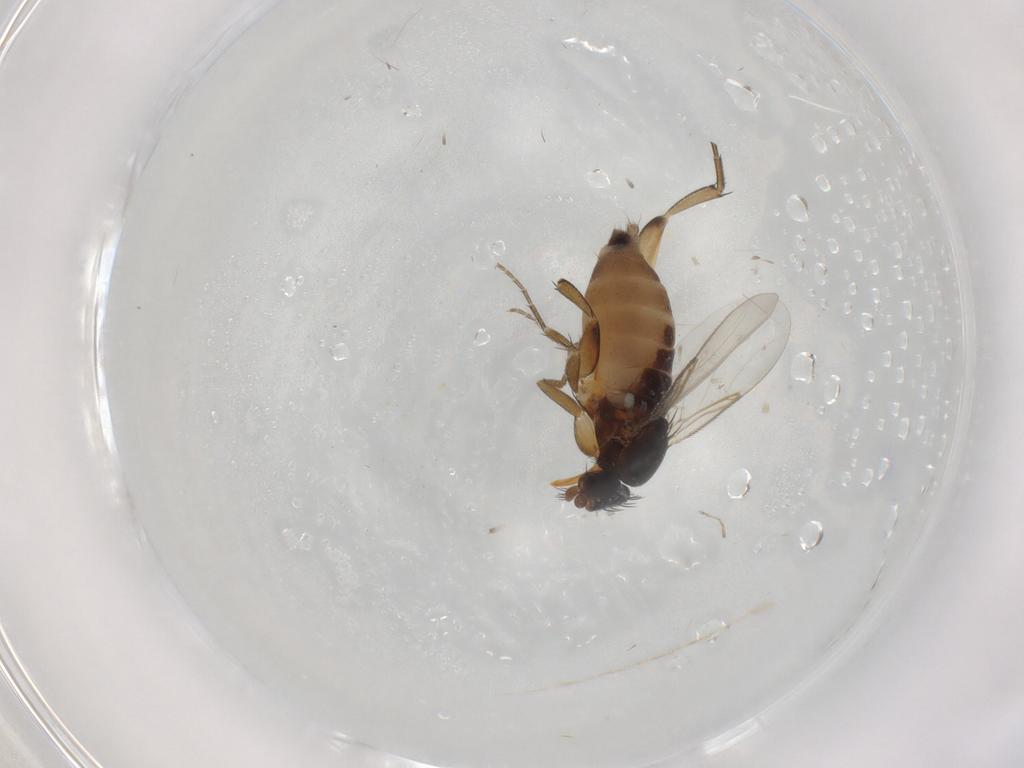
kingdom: Animalia
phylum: Arthropoda
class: Insecta
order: Diptera
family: Phoridae
